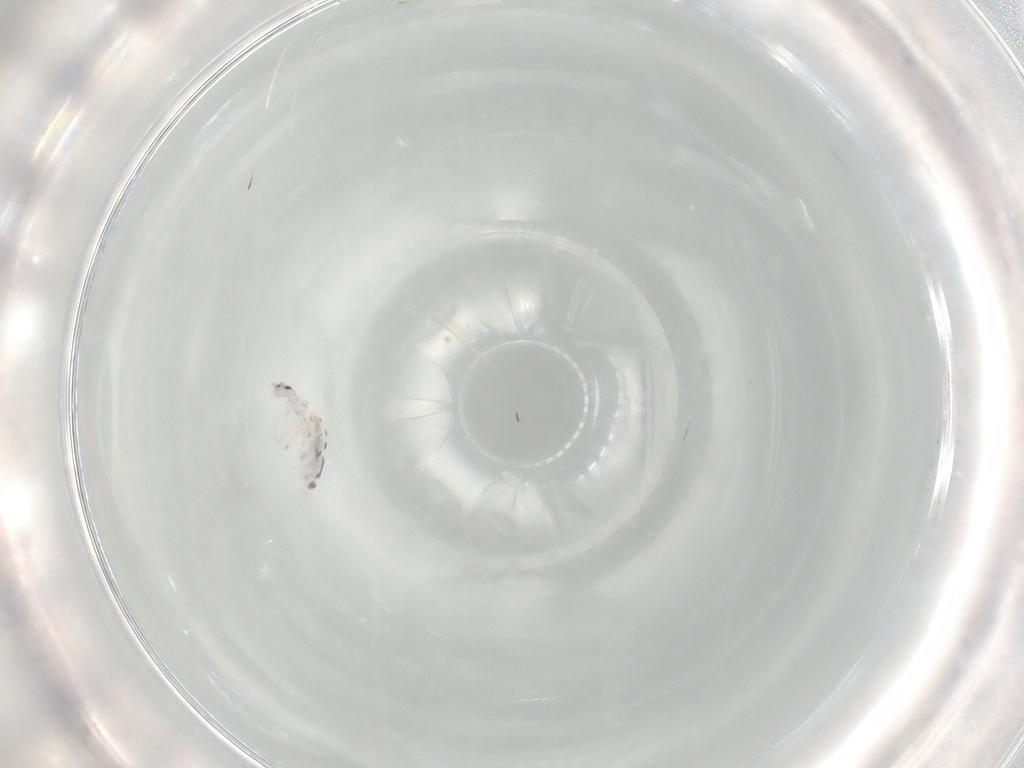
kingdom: Animalia
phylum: Arthropoda
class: Collembola
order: Entomobryomorpha
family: Entomobryidae
